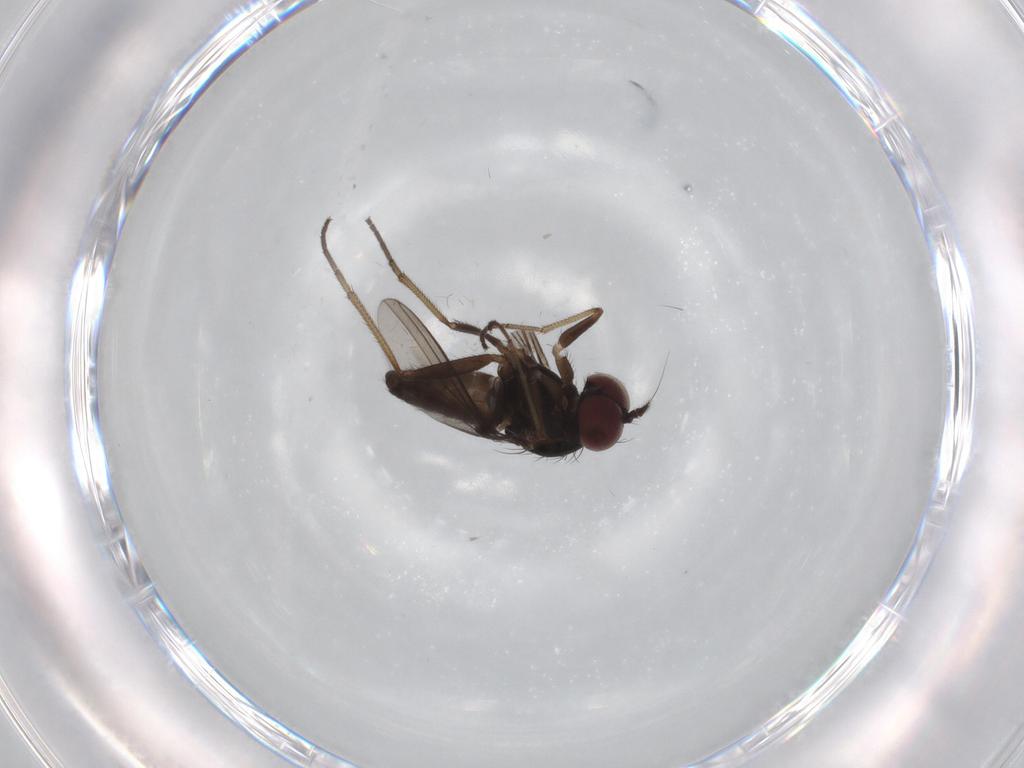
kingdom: Animalia
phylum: Arthropoda
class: Insecta
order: Diptera
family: Dolichopodidae
